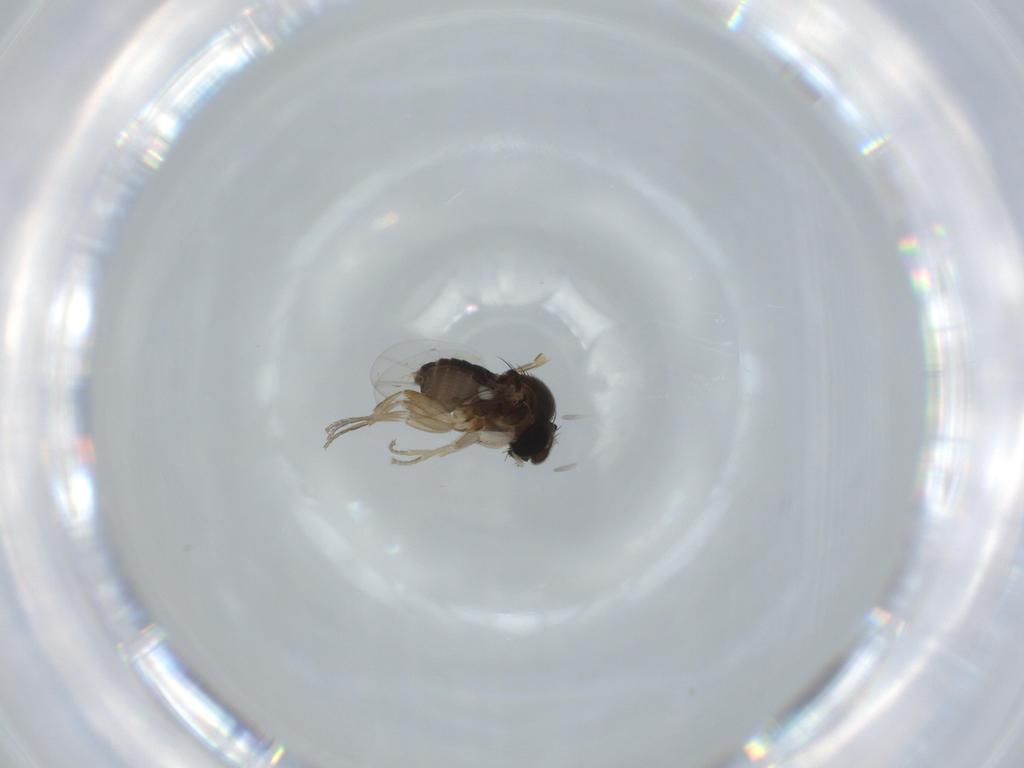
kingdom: Animalia
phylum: Arthropoda
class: Insecta
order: Diptera
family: Phoridae
